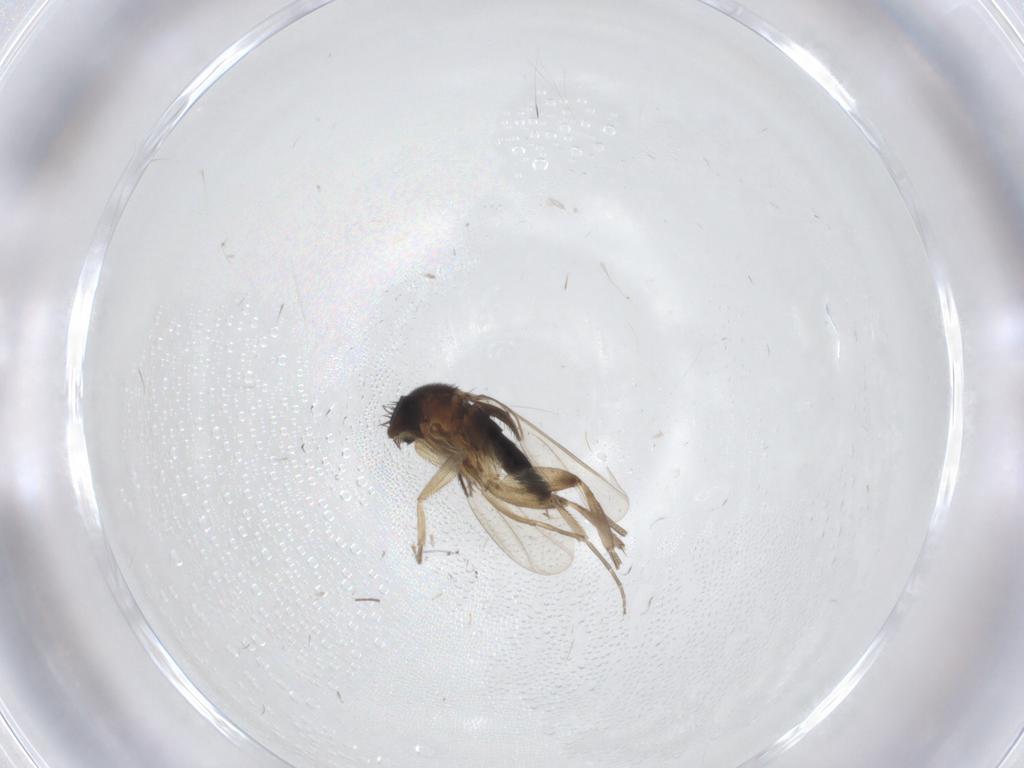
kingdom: Animalia
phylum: Arthropoda
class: Insecta
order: Diptera
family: Phoridae
